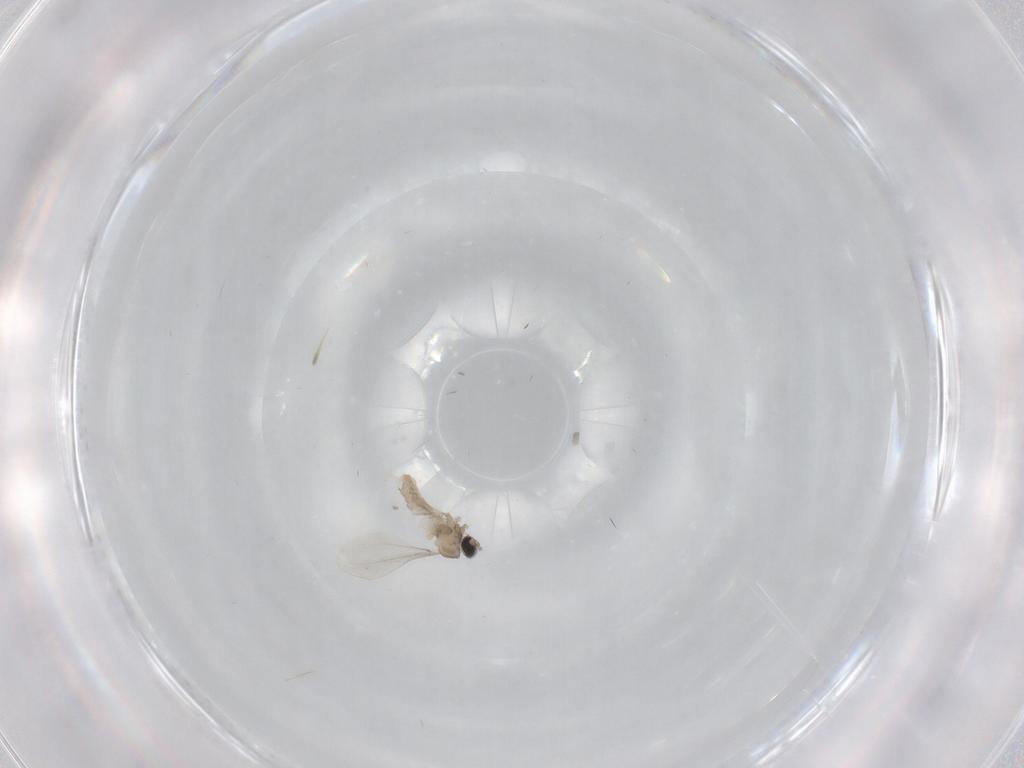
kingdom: Animalia
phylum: Arthropoda
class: Insecta
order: Diptera
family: Cecidomyiidae
